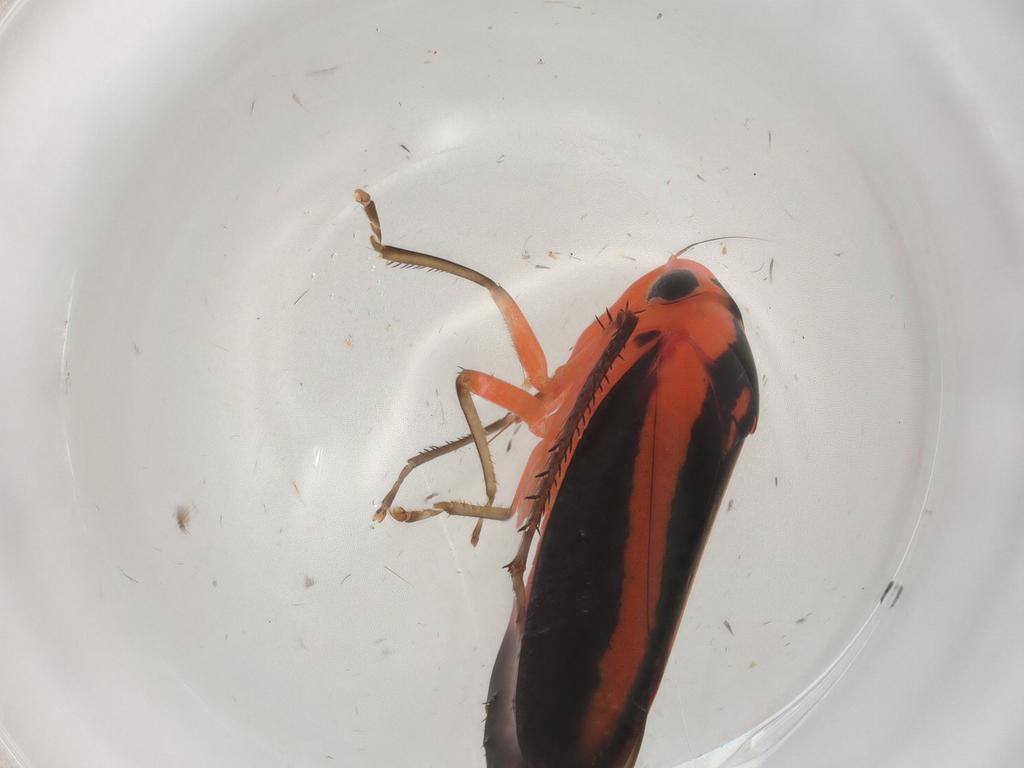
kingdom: Animalia
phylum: Arthropoda
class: Insecta
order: Hemiptera
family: Cicadellidae
